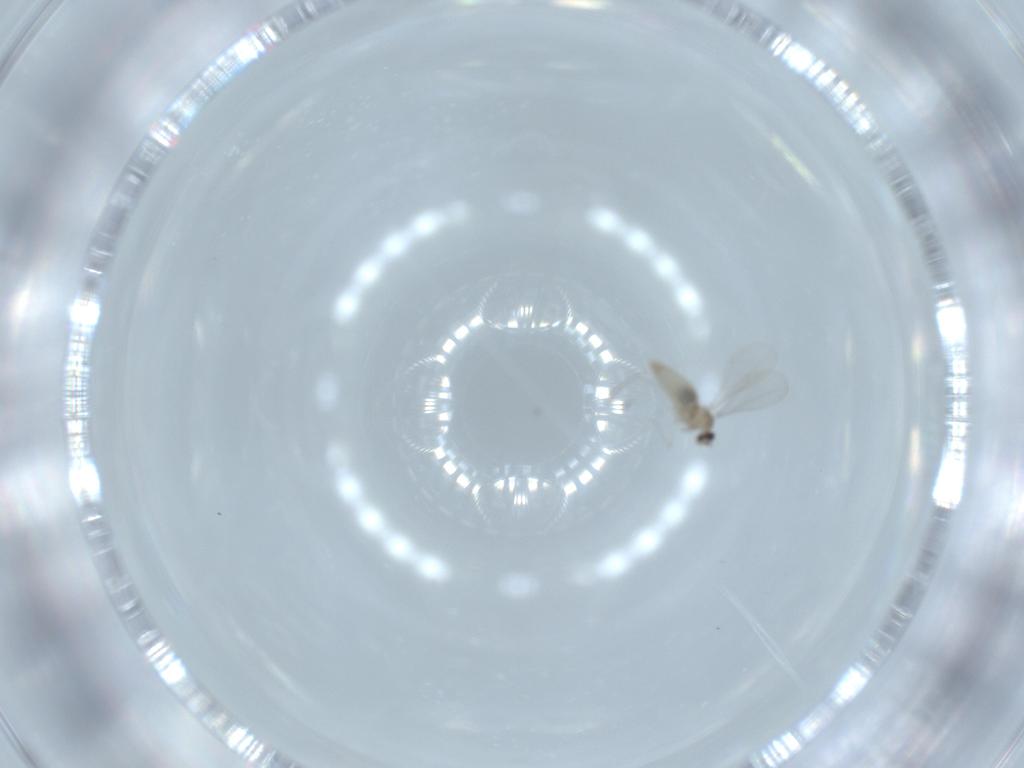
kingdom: Animalia
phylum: Arthropoda
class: Insecta
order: Diptera
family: Cecidomyiidae
